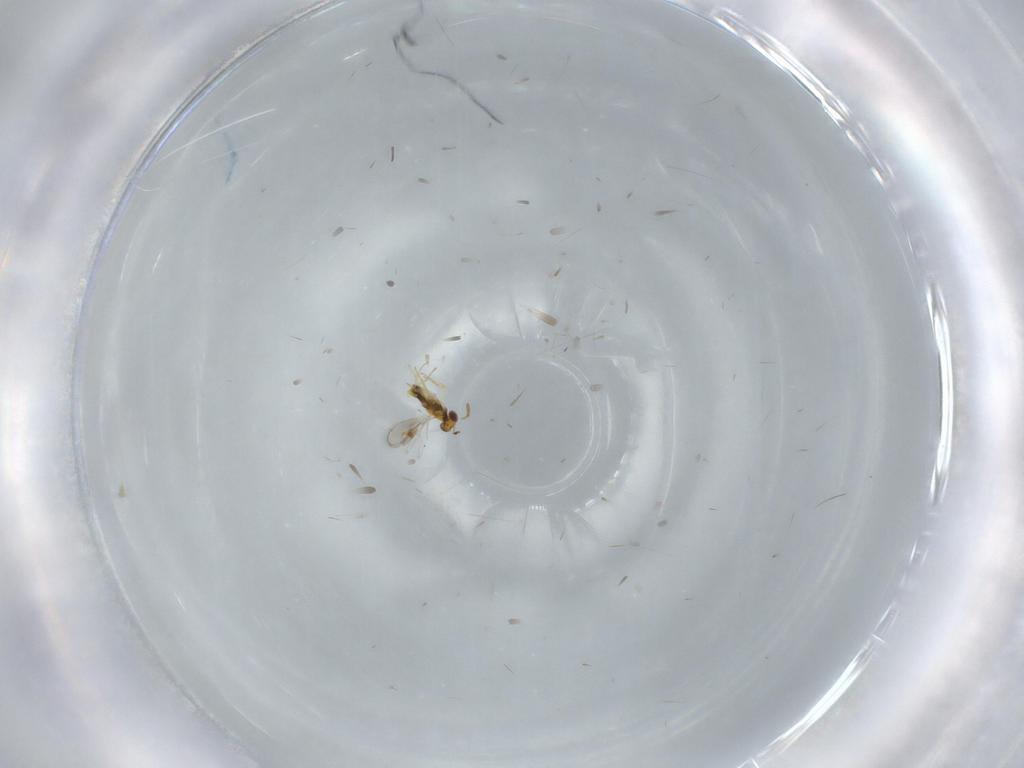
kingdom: Animalia
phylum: Arthropoda
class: Insecta
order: Hymenoptera
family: Aphelinidae
